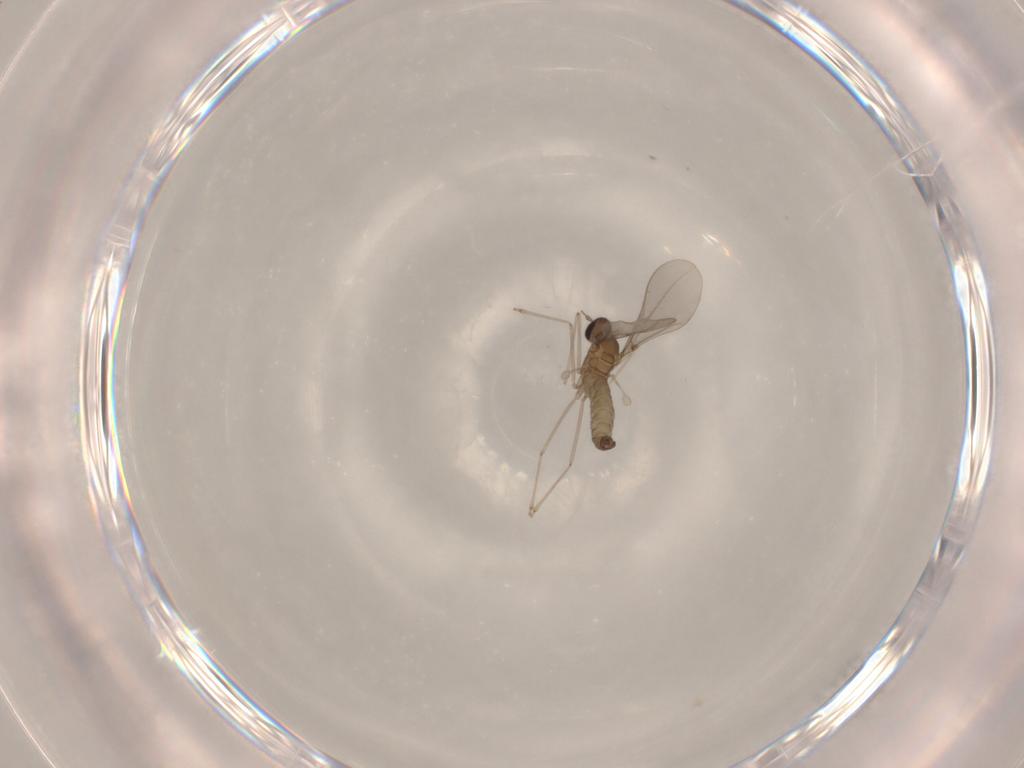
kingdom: Animalia
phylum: Arthropoda
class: Insecta
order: Diptera
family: Cecidomyiidae
